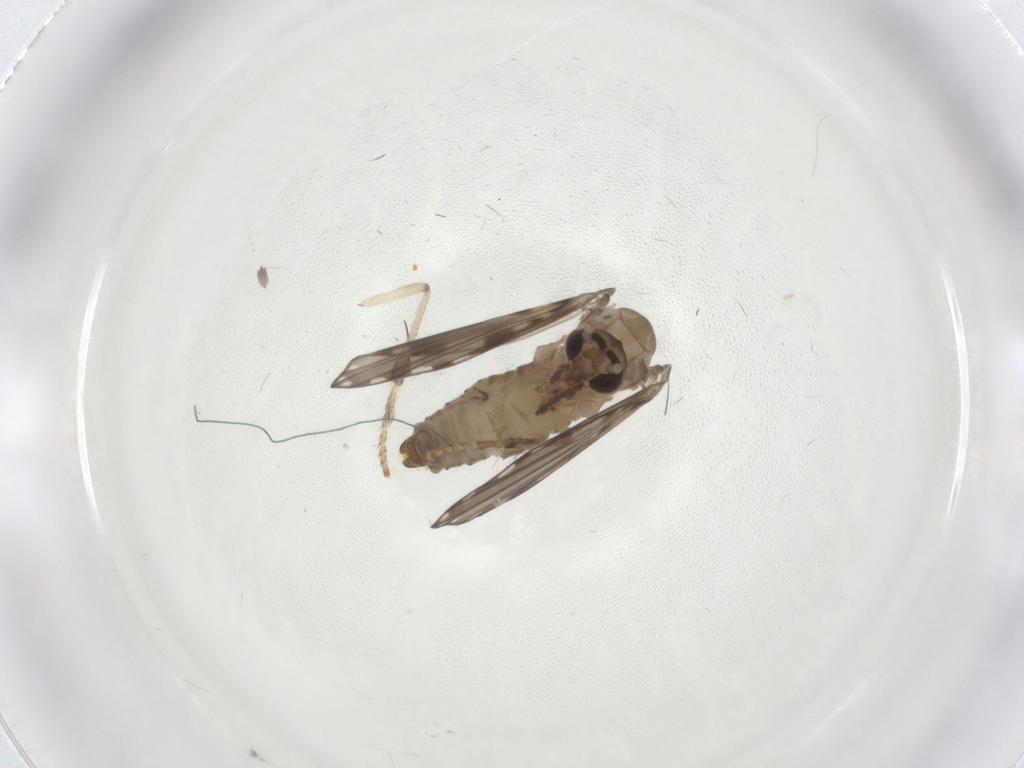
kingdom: Animalia
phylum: Arthropoda
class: Insecta
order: Diptera
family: Psychodidae
